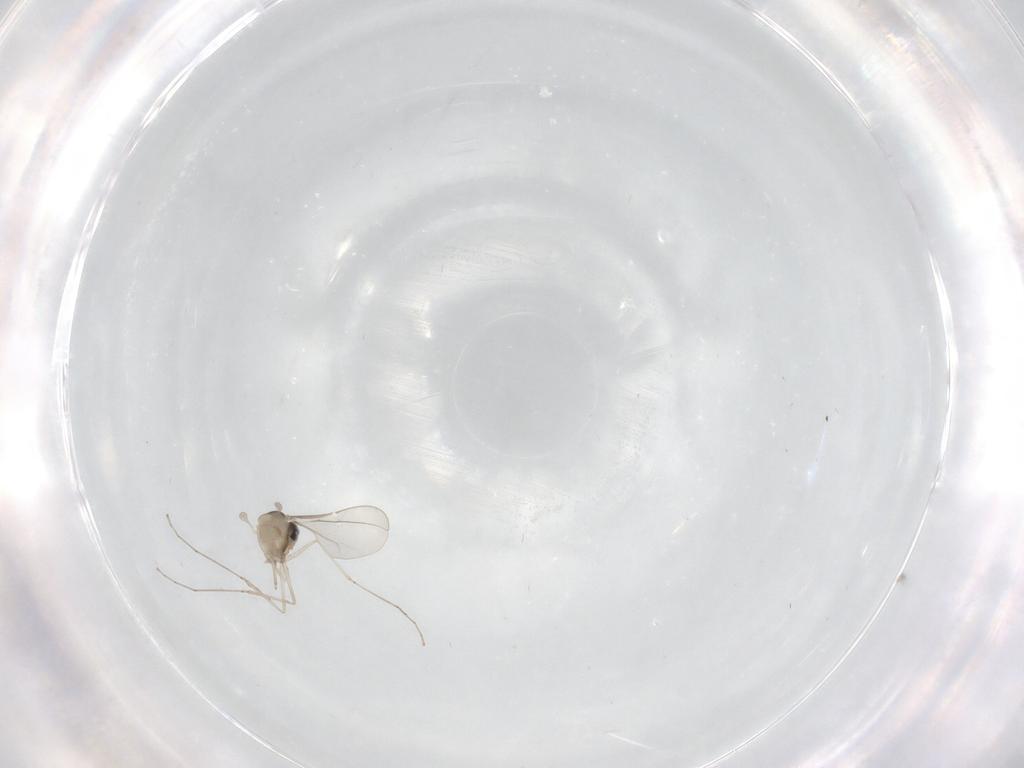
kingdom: Animalia
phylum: Arthropoda
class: Insecta
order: Diptera
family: Cecidomyiidae
